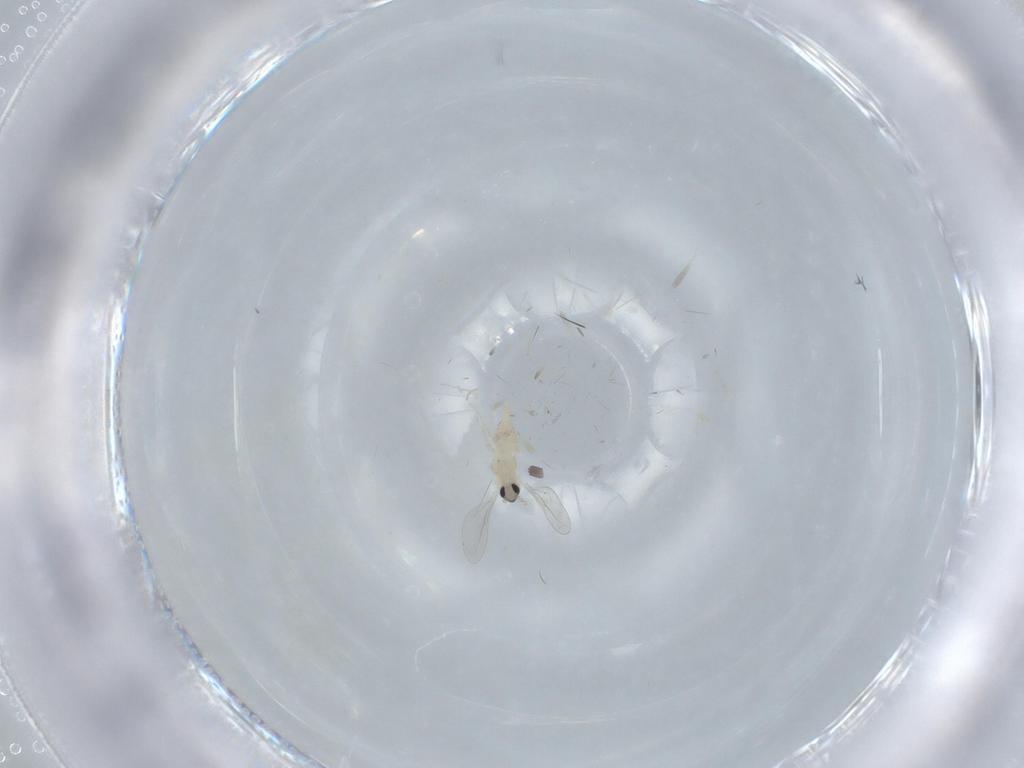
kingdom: Animalia
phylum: Arthropoda
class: Insecta
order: Diptera
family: Cecidomyiidae
